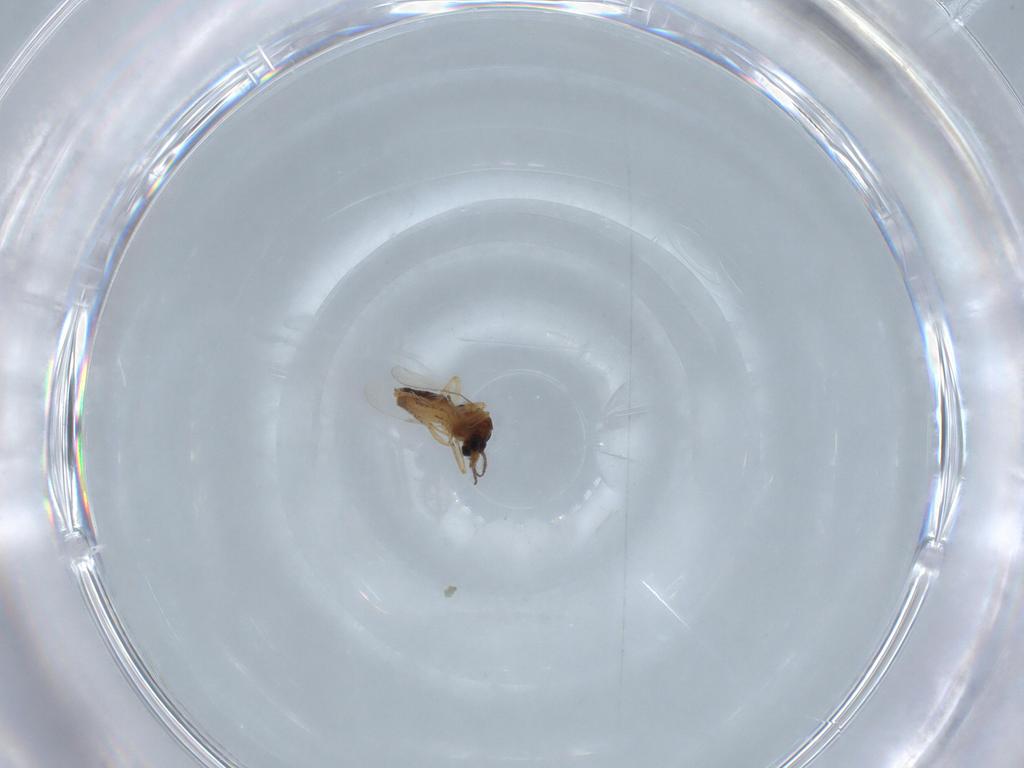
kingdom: Animalia
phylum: Arthropoda
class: Insecta
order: Diptera
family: Ceratopogonidae
